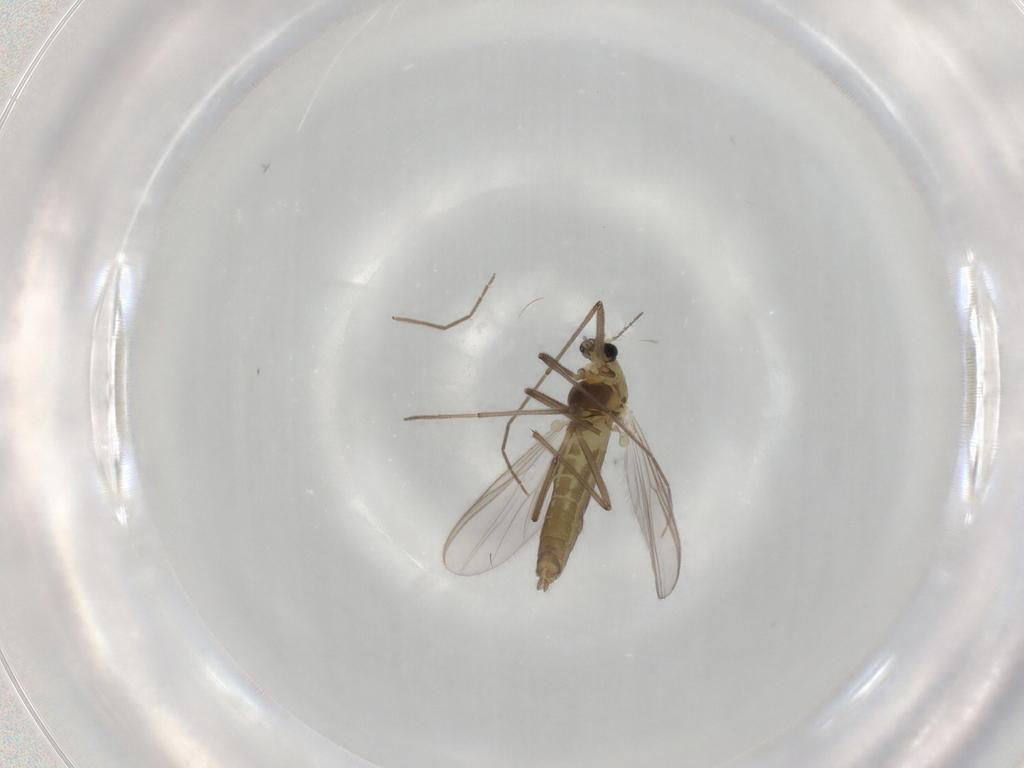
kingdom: Animalia
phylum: Arthropoda
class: Insecta
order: Diptera
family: Chironomidae
